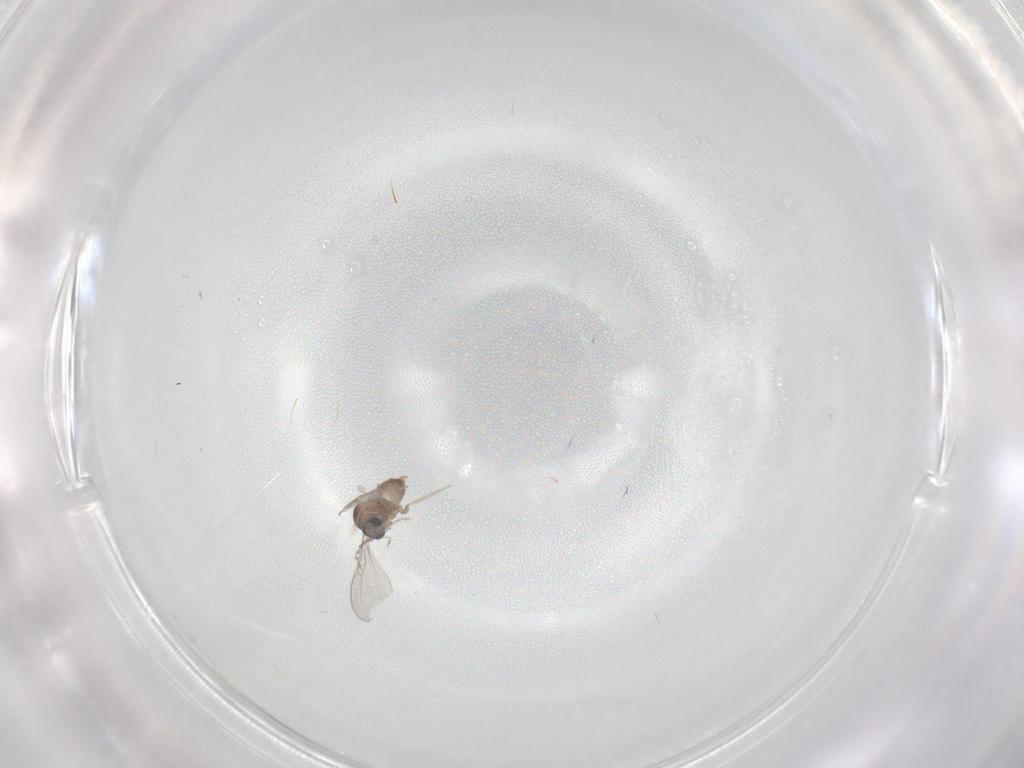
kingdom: Animalia
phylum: Arthropoda
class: Insecta
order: Diptera
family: Cecidomyiidae
